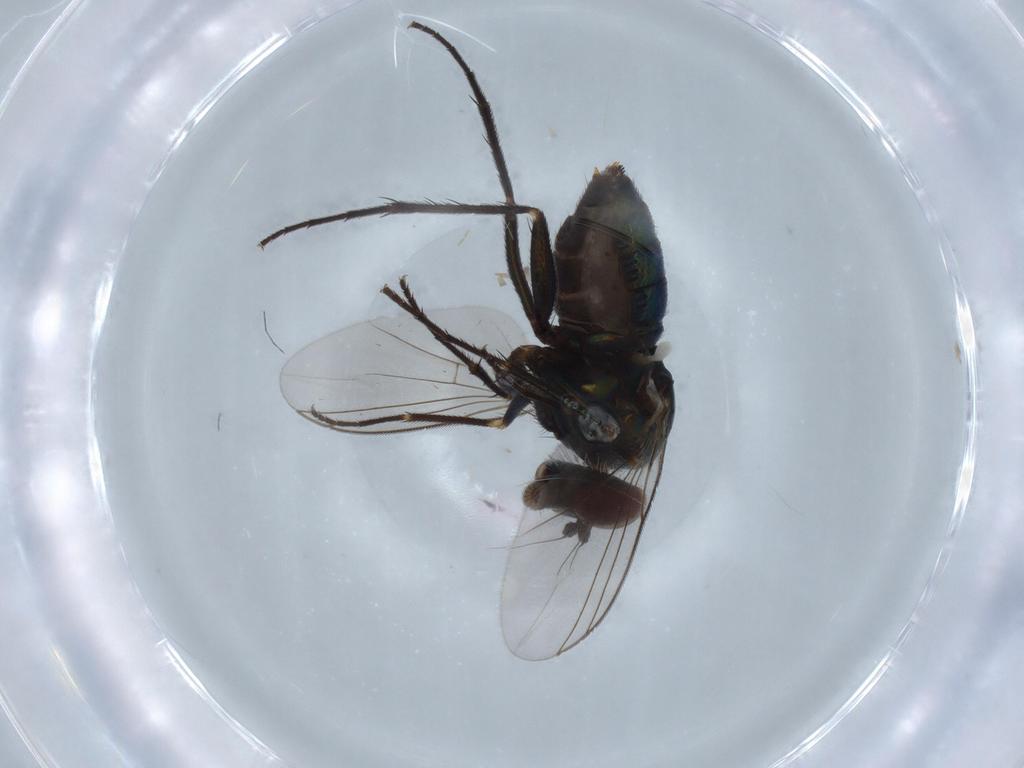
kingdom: Animalia
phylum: Arthropoda
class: Insecta
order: Diptera
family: Dolichopodidae
